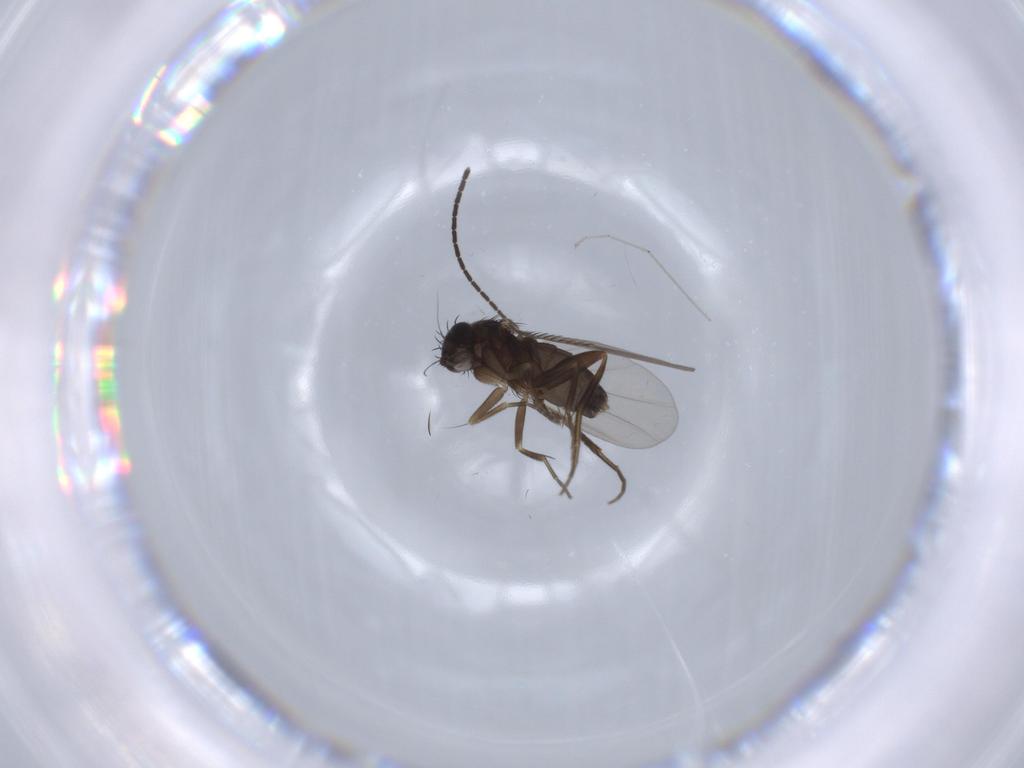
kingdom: Animalia
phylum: Arthropoda
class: Insecta
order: Diptera
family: Phoridae
